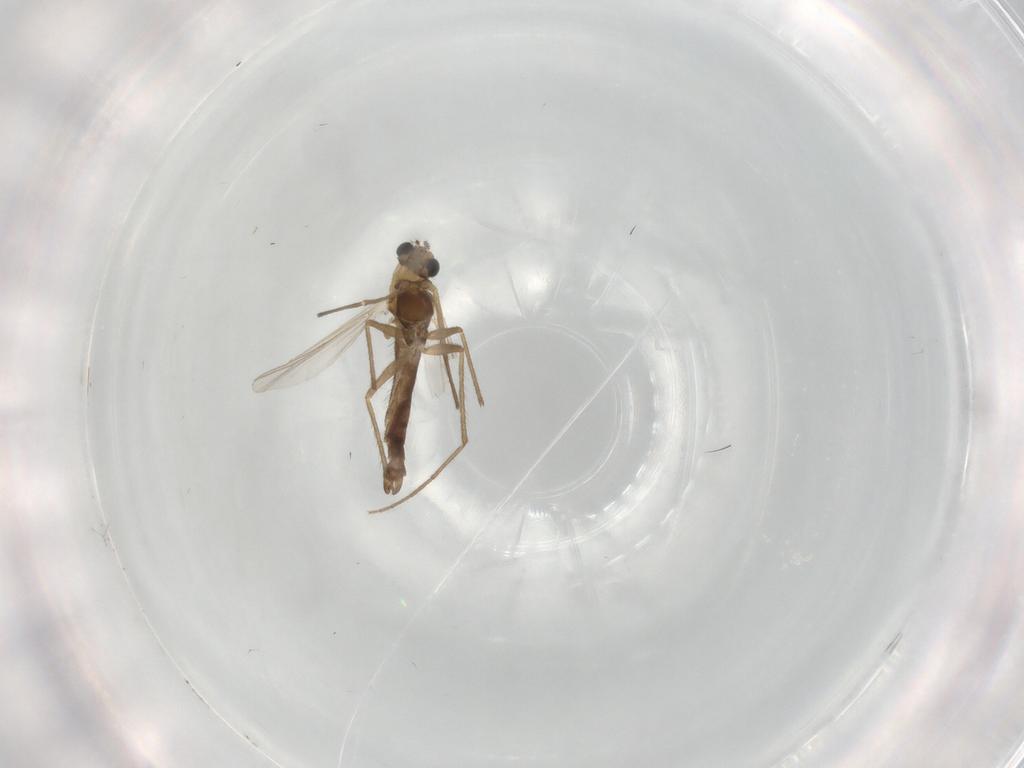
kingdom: Animalia
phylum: Arthropoda
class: Insecta
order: Diptera
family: Chironomidae
